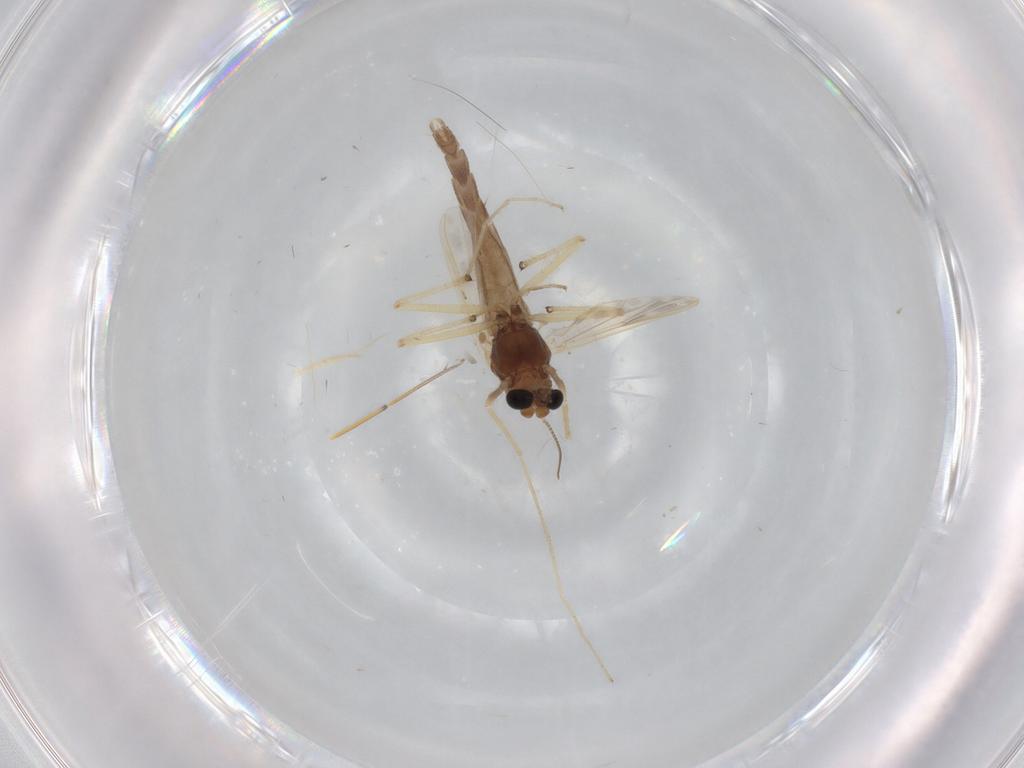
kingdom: Animalia
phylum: Arthropoda
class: Insecta
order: Diptera
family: Chironomidae
